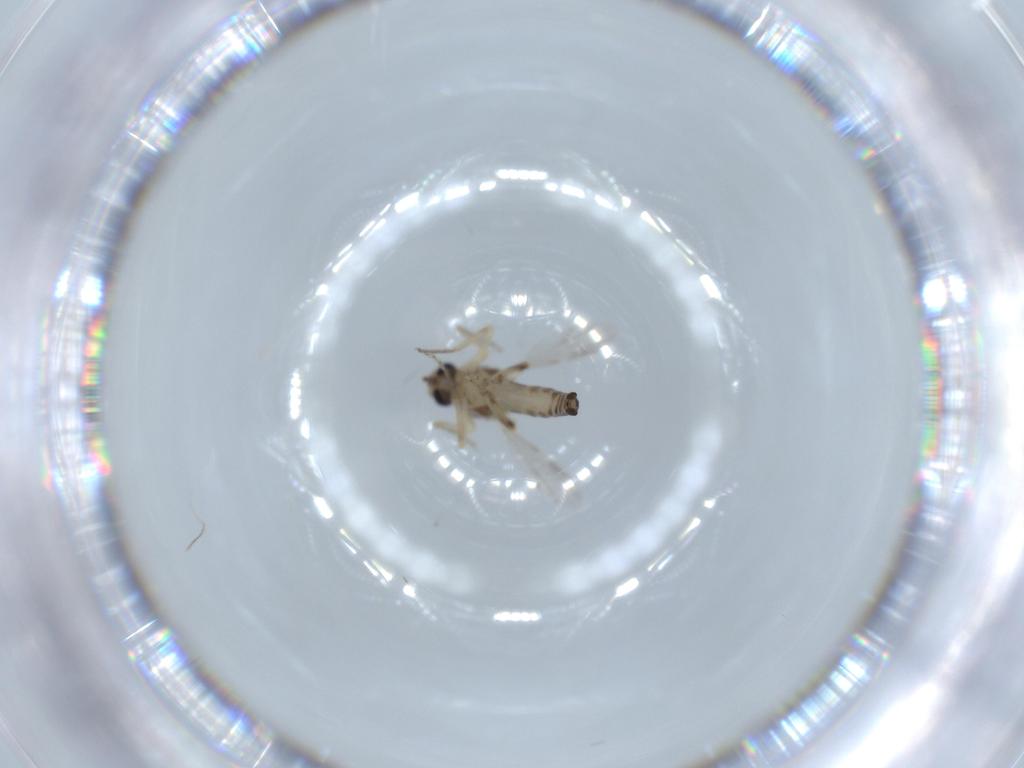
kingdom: Animalia
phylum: Arthropoda
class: Insecta
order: Diptera
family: Ceratopogonidae
